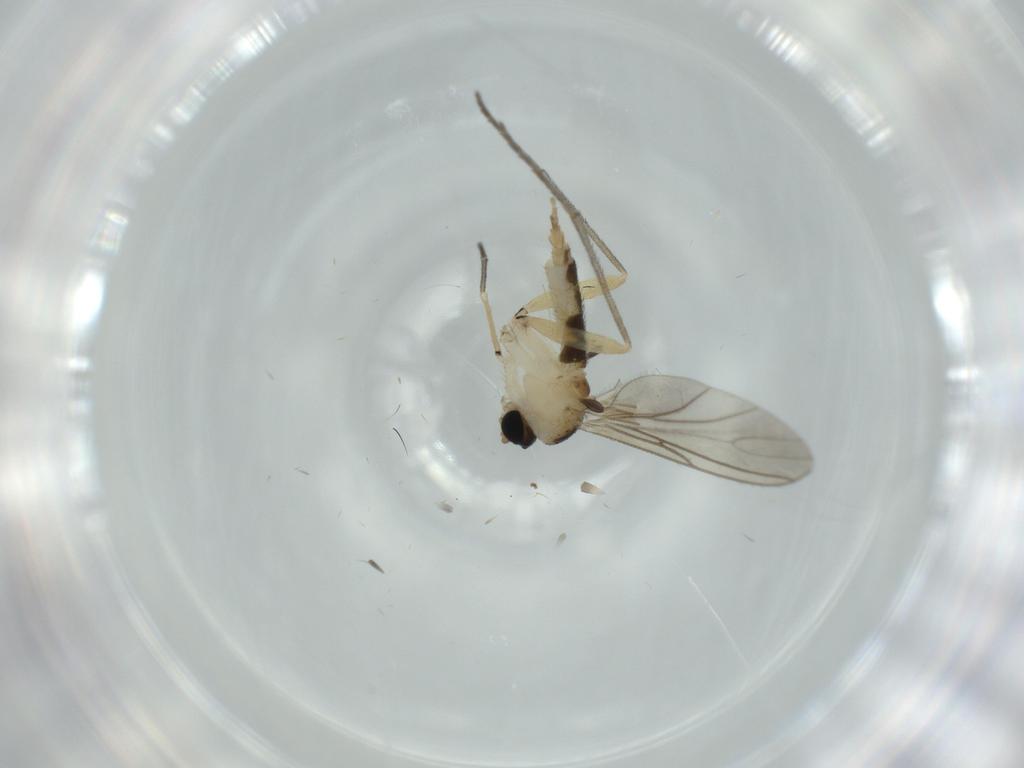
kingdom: Animalia
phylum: Arthropoda
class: Insecta
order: Diptera
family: Sciaridae
